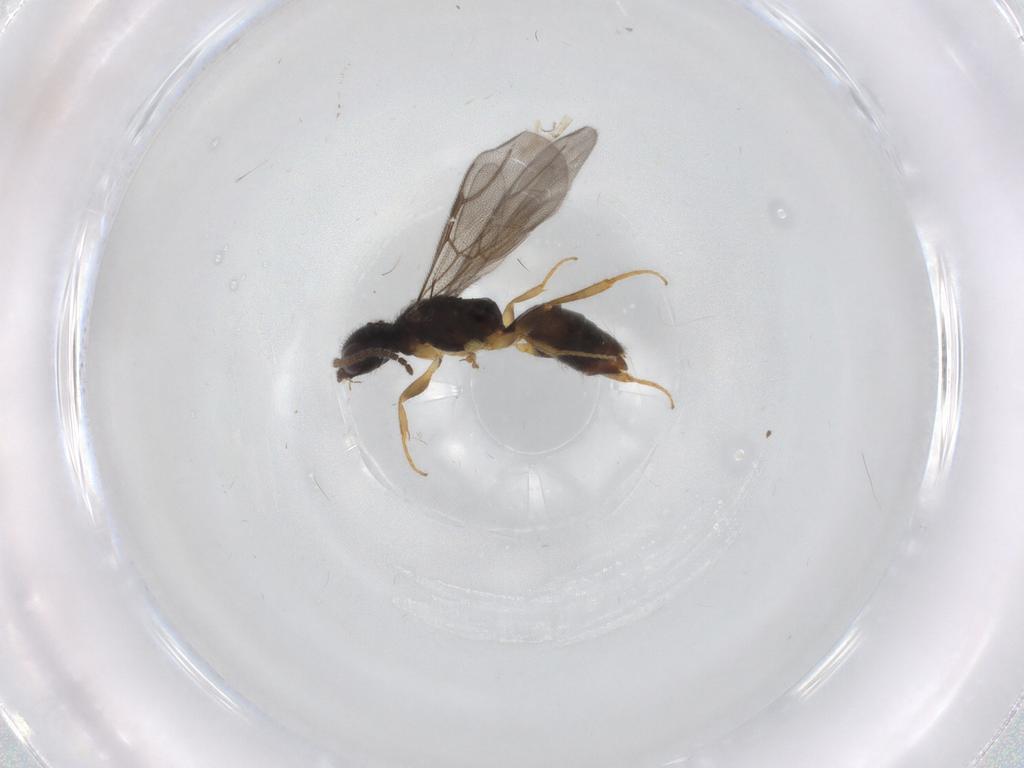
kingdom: Animalia
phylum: Arthropoda
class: Insecta
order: Hymenoptera
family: Bethylidae
